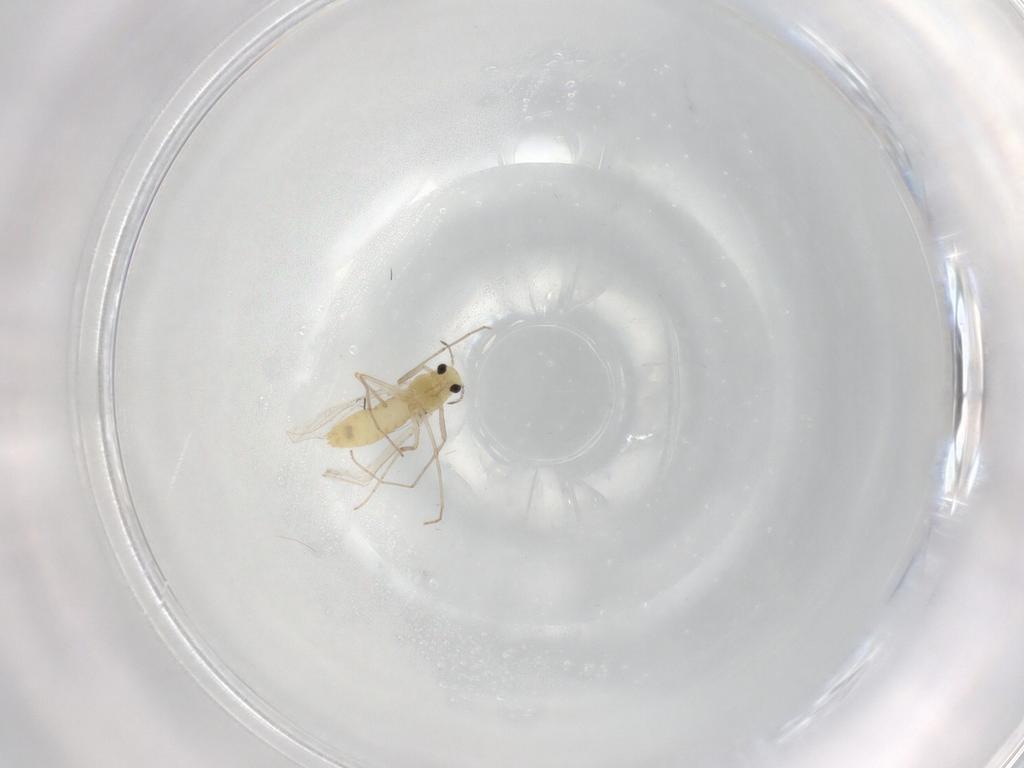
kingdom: Animalia
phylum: Arthropoda
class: Insecta
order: Diptera
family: Chironomidae
